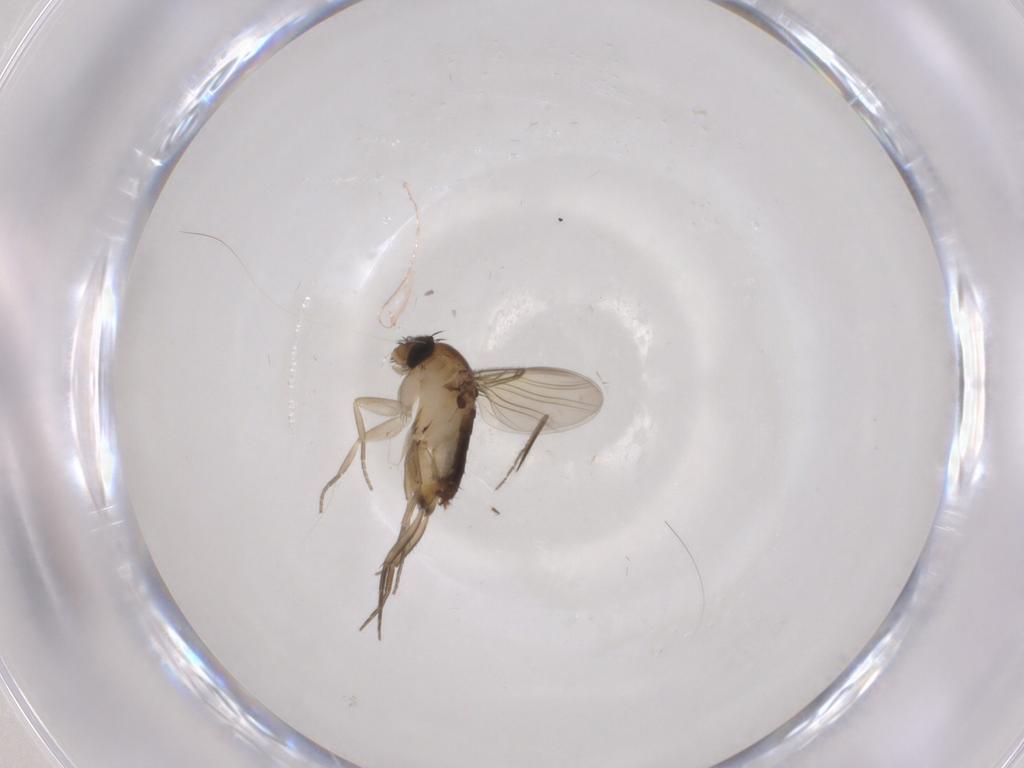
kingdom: Animalia
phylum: Arthropoda
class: Insecta
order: Diptera
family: Phoridae
